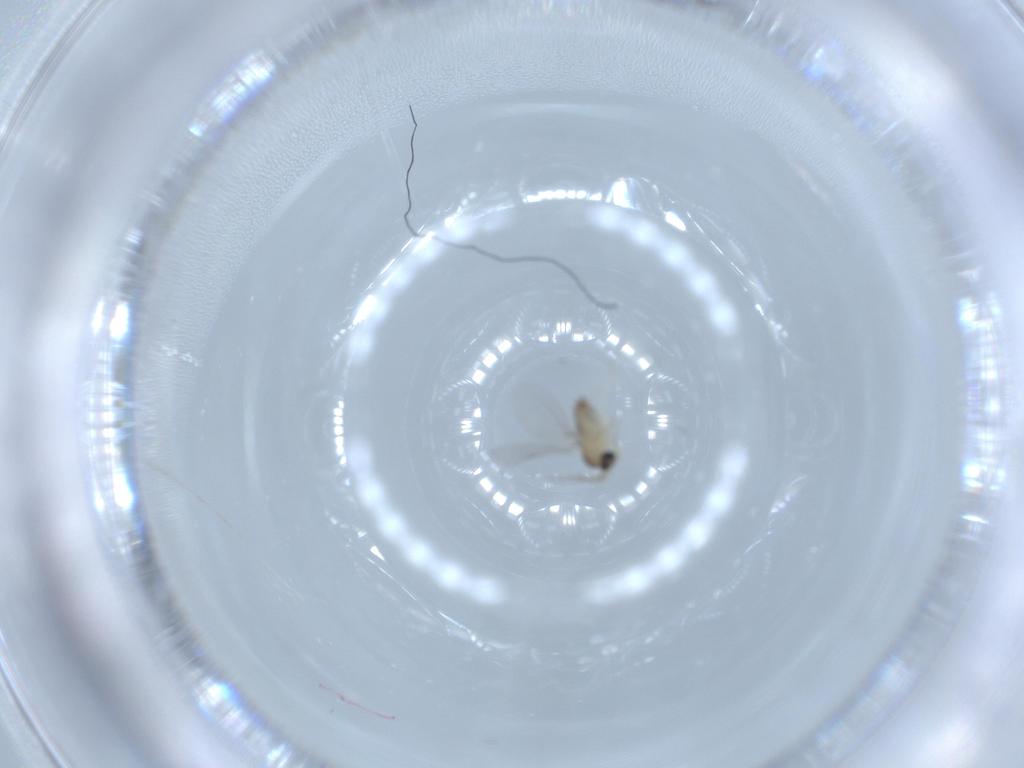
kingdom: Animalia
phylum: Arthropoda
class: Insecta
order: Diptera
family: Cecidomyiidae
